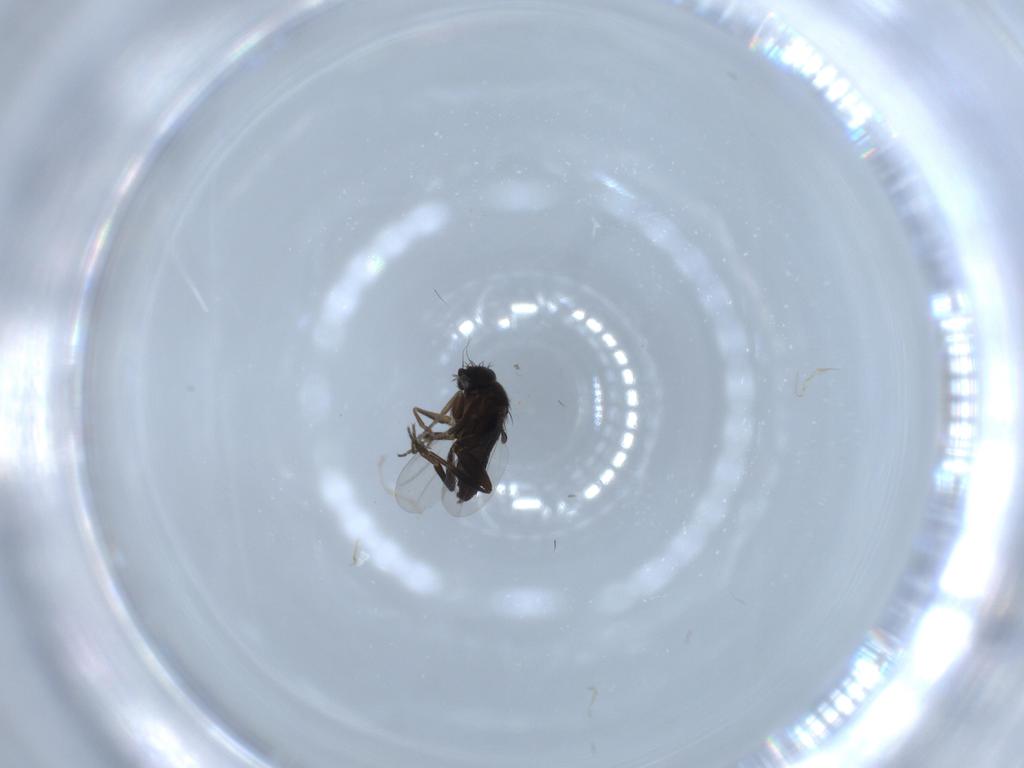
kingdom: Animalia
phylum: Arthropoda
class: Insecta
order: Diptera
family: Phoridae
